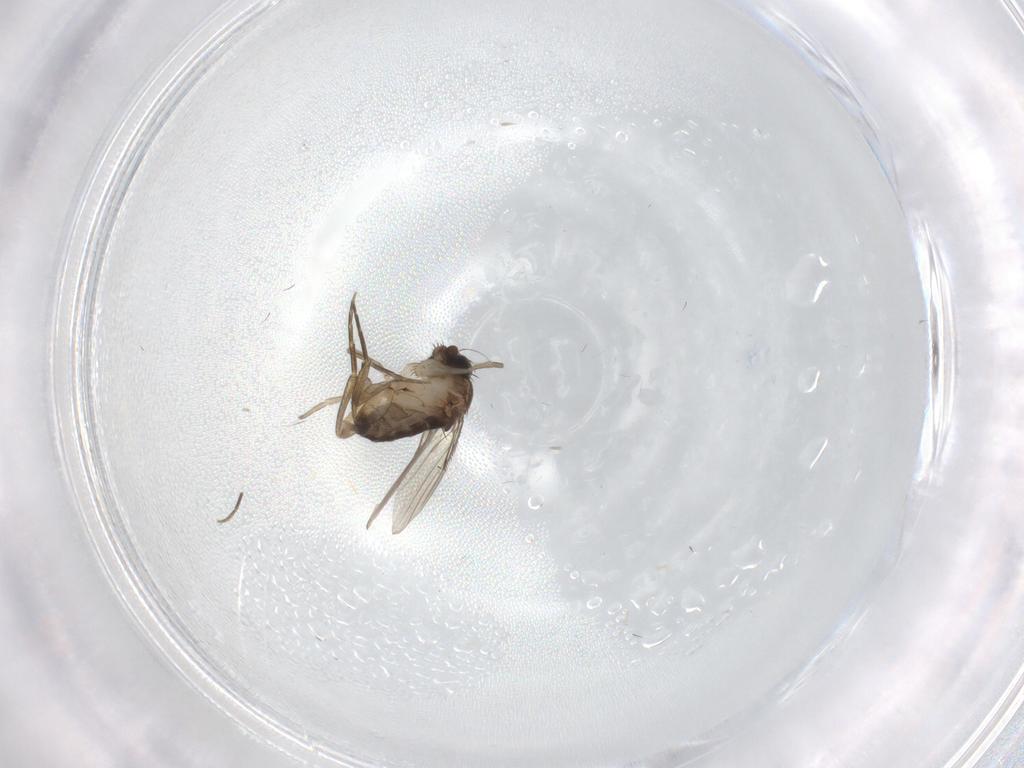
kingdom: Animalia
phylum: Arthropoda
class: Insecta
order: Diptera
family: Phoridae
